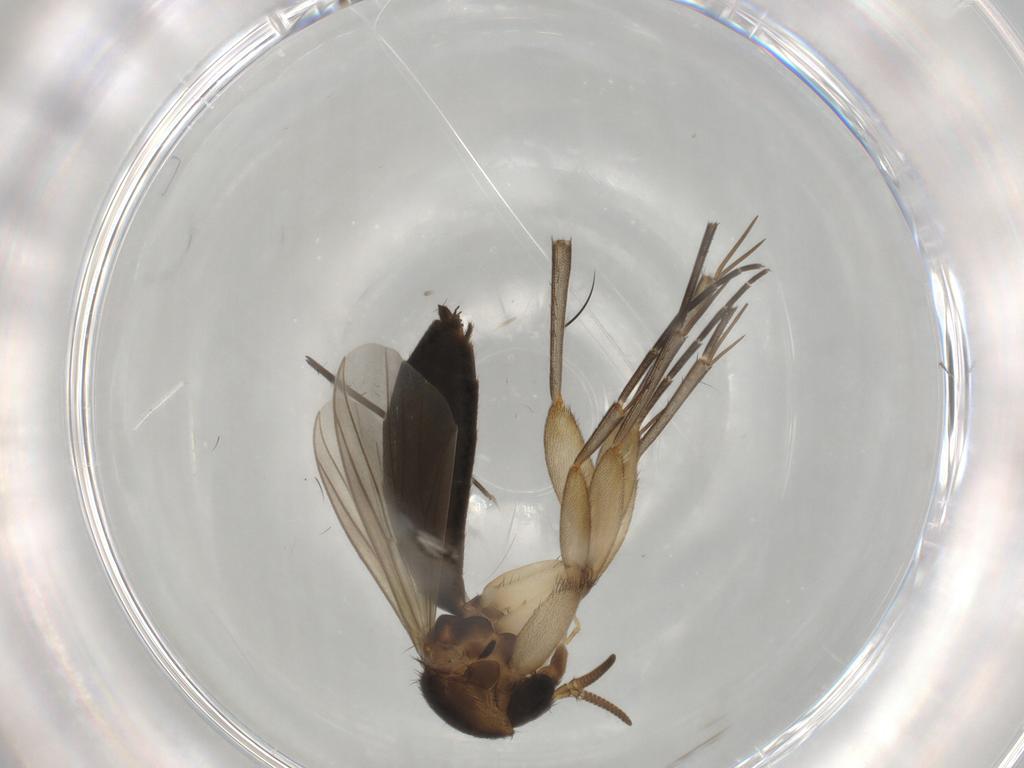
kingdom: Animalia
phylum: Arthropoda
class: Insecta
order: Diptera
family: Mycetophilidae
